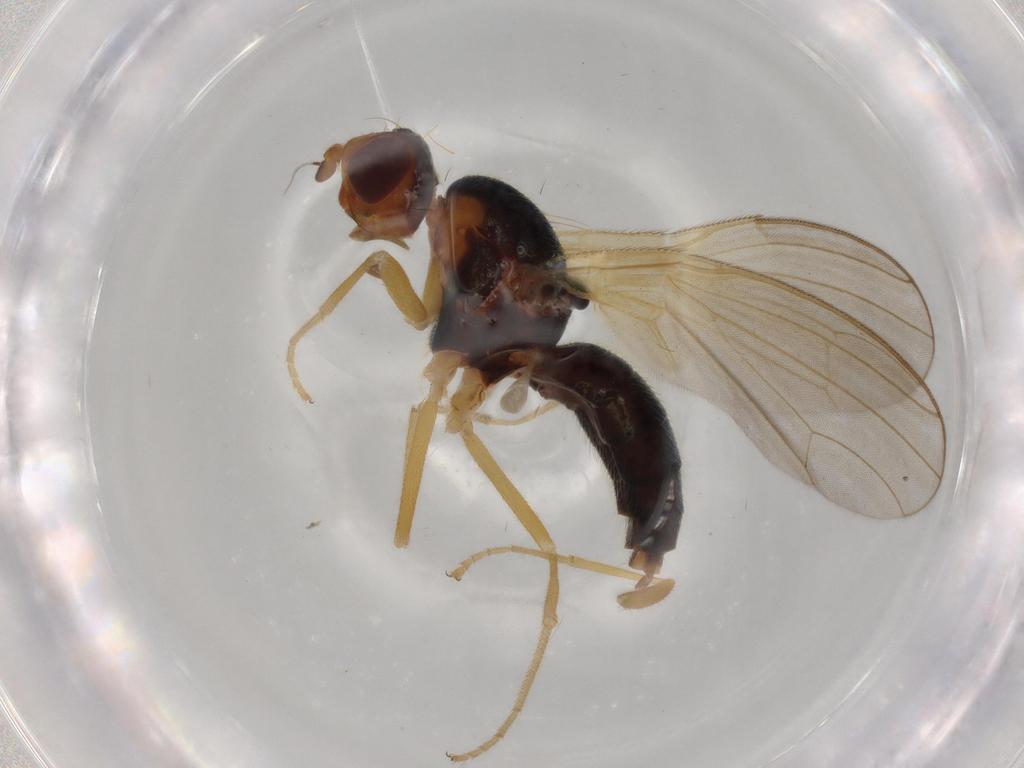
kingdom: Animalia
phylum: Arthropoda
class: Insecta
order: Diptera
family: Psilidae
